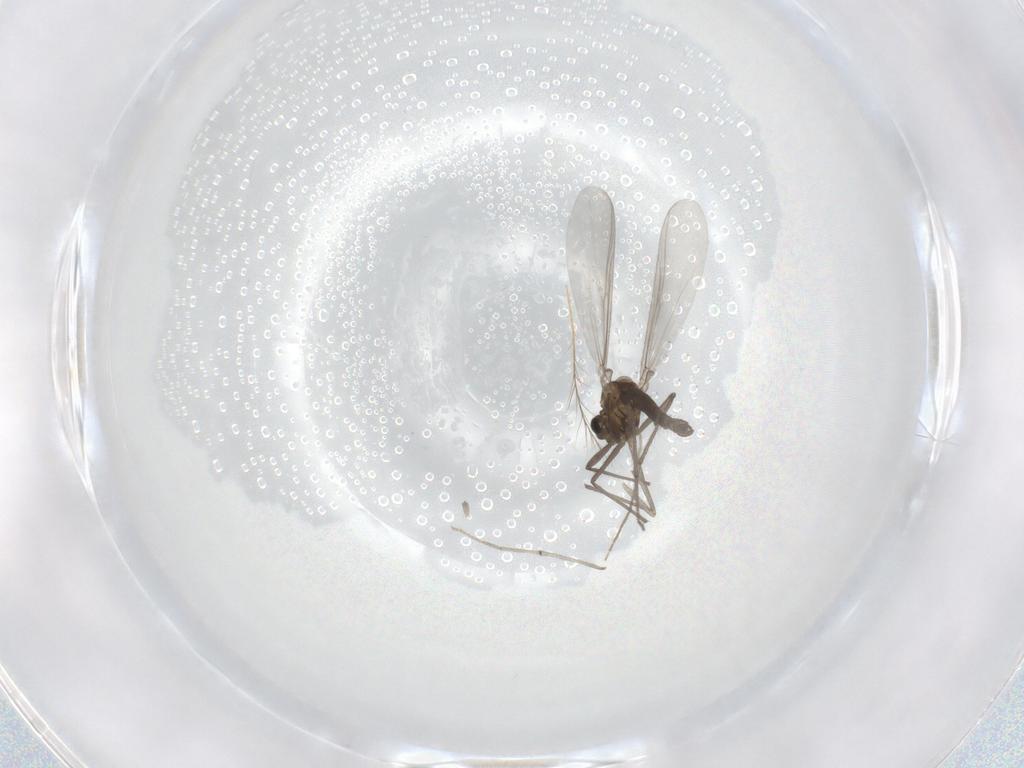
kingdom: Animalia
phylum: Arthropoda
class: Insecta
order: Diptera
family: Chironomidae
